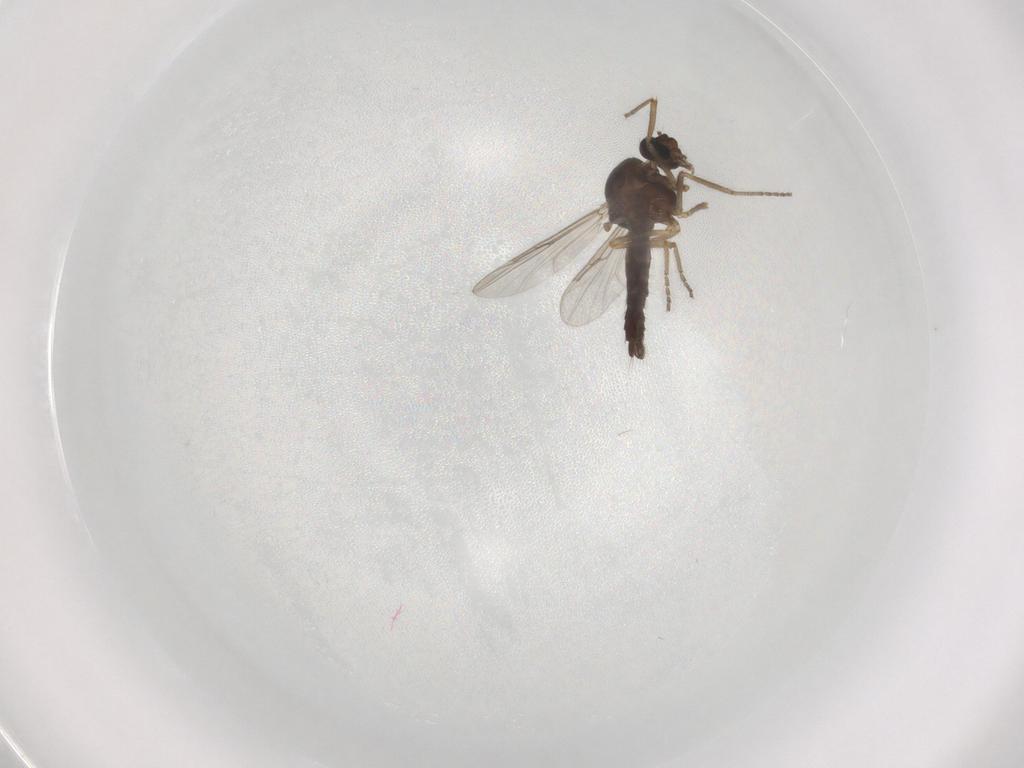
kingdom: Animalia
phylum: Arthropoda
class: Insecta
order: Diptera
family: Ceratopogonidae
